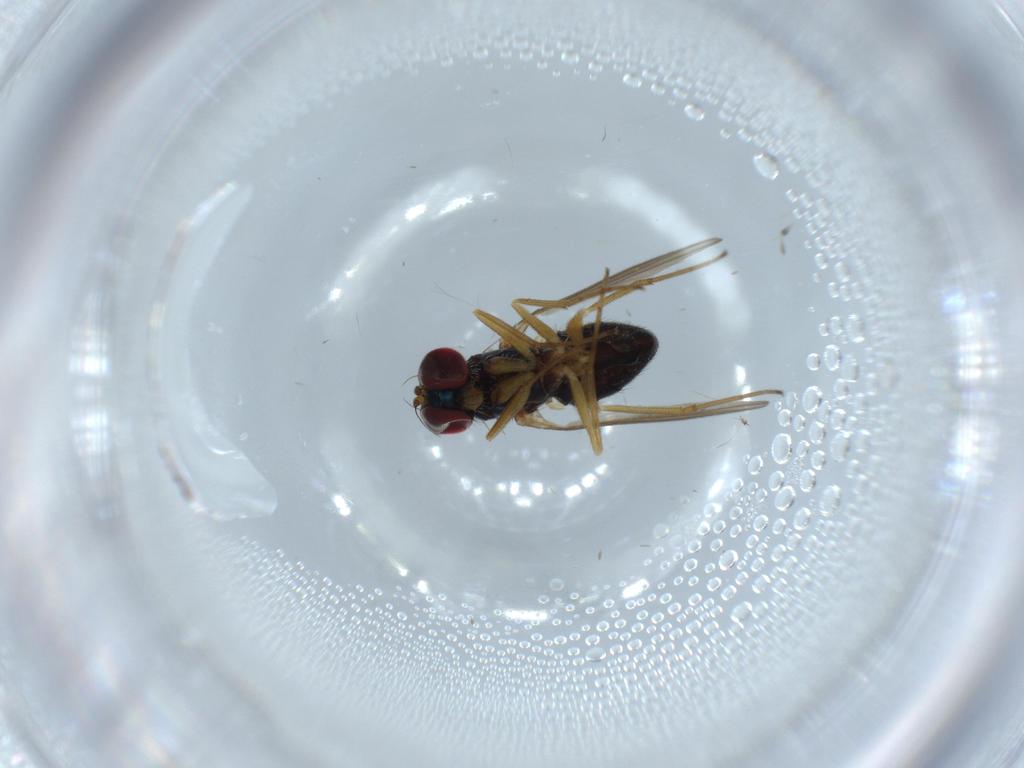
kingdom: Animalia
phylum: Arthropoda
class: Insecta
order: Diptera
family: Dolichopodidae
